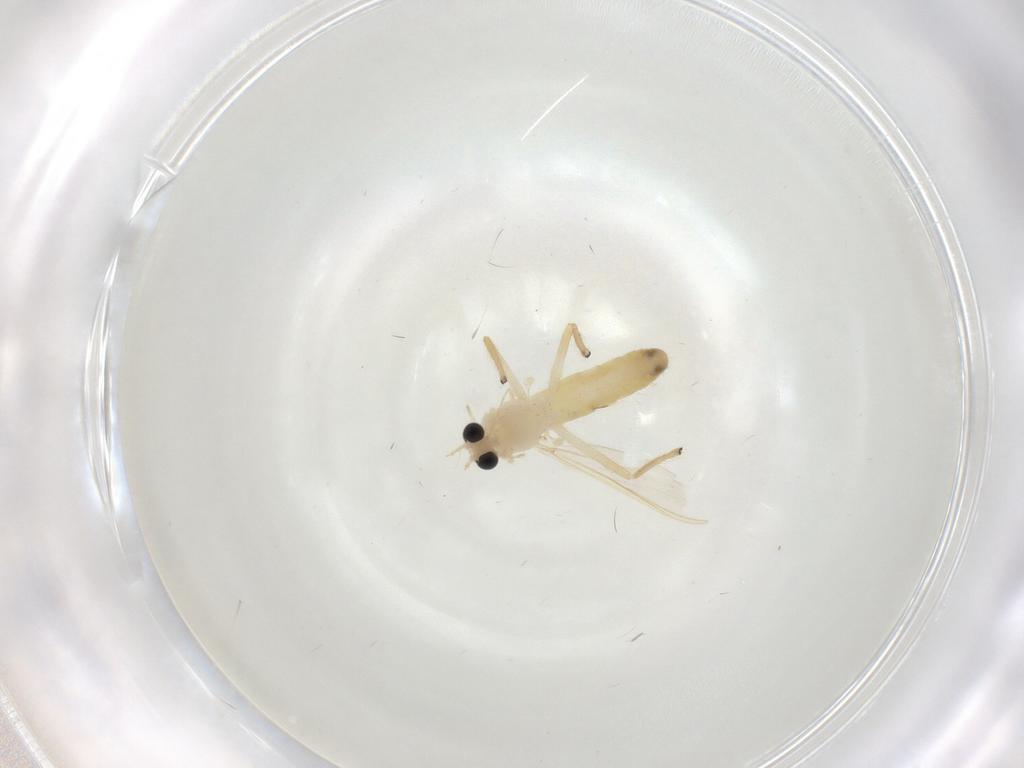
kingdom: Animalia
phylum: Arthropoda
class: Insecta
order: Diptera
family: Chironomidae
